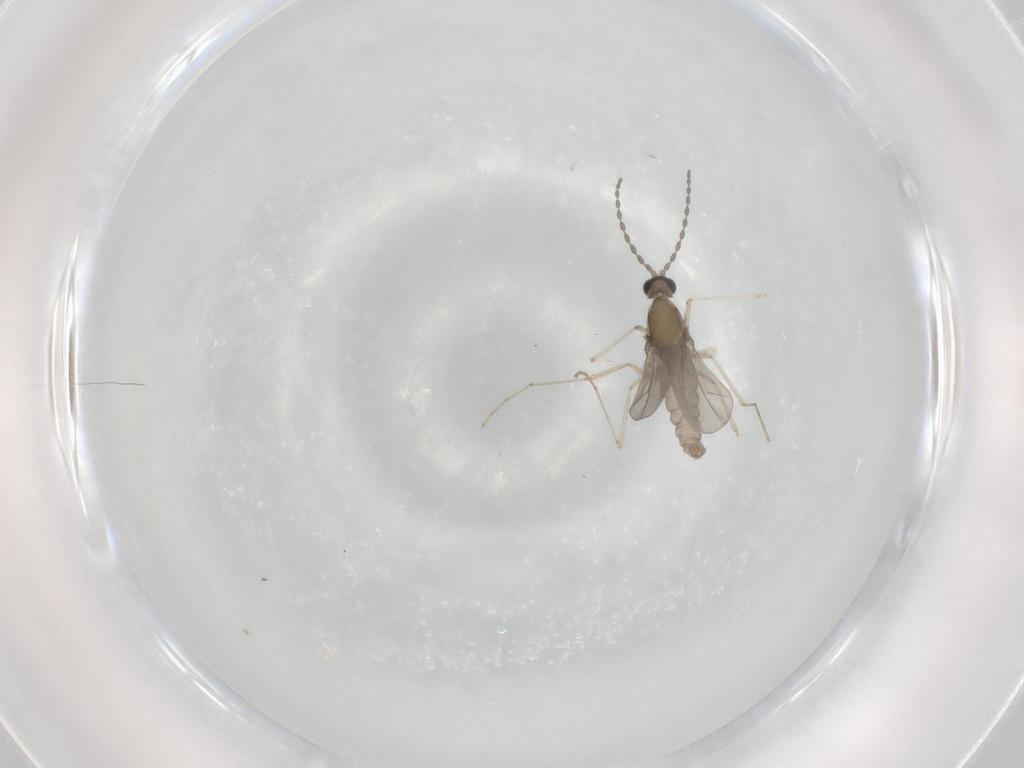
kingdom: Animalia
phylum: Arthropoda
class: Insecta
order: Diptera
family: Cecidomyiidae
